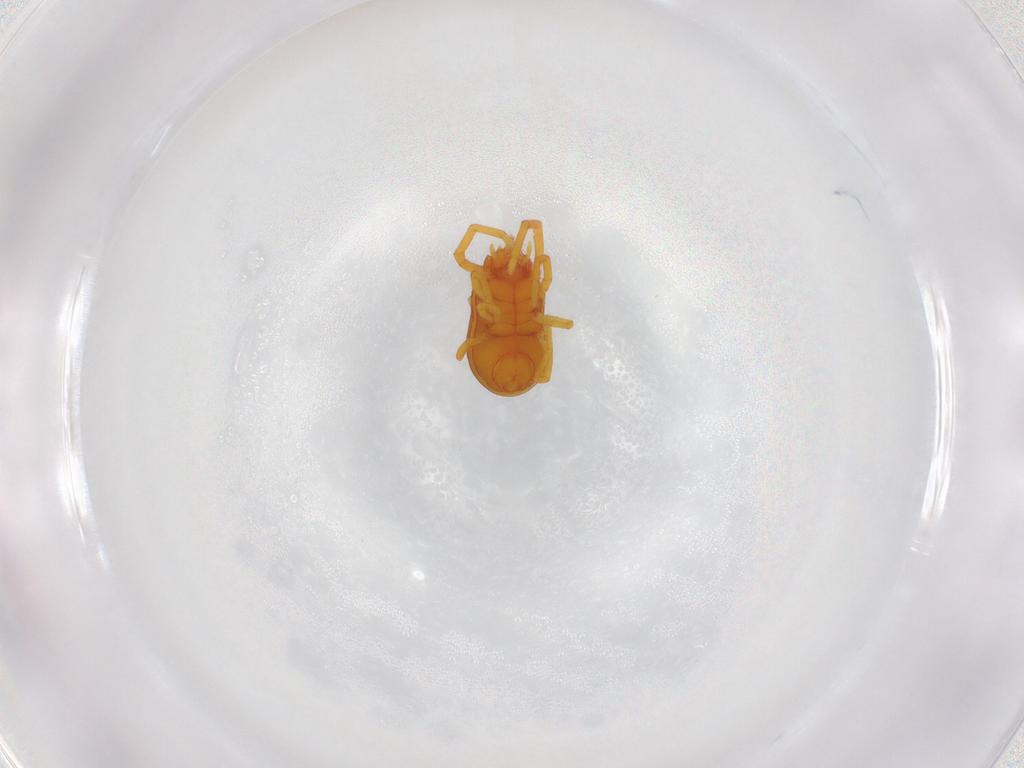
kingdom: Animalia
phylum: Arthropoda
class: Arachnida
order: Trombidiformes
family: Labidostommidae
